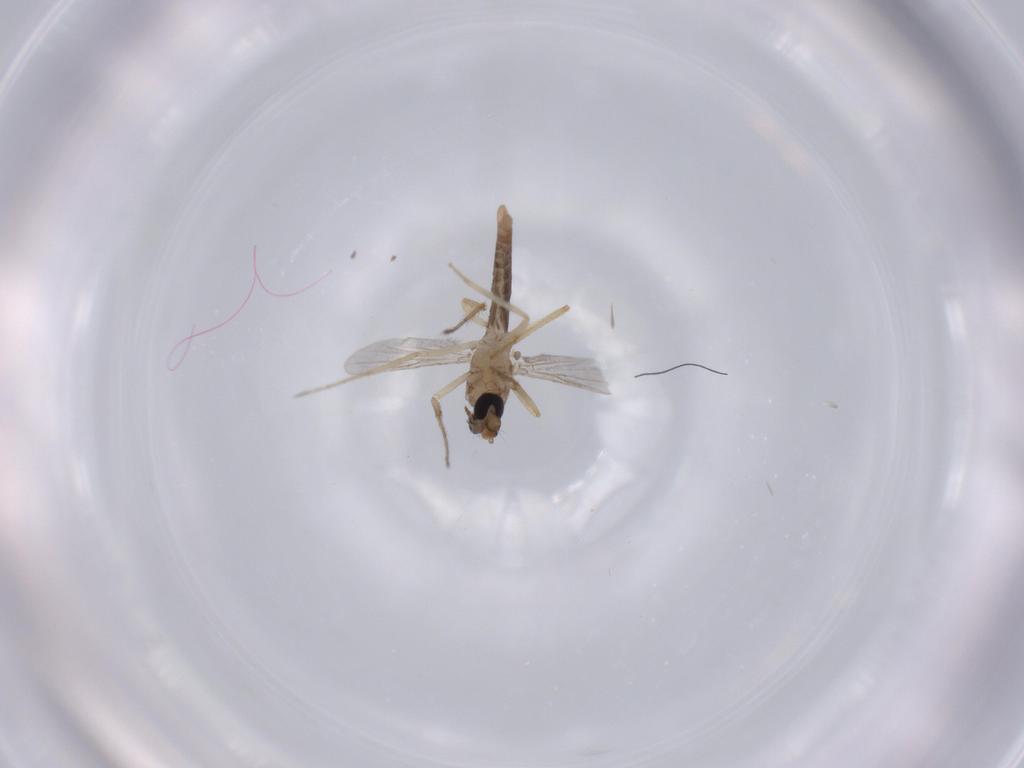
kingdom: Animalia
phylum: Arthropoda
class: Insecta
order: Diptera
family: Ceratopogonidae
